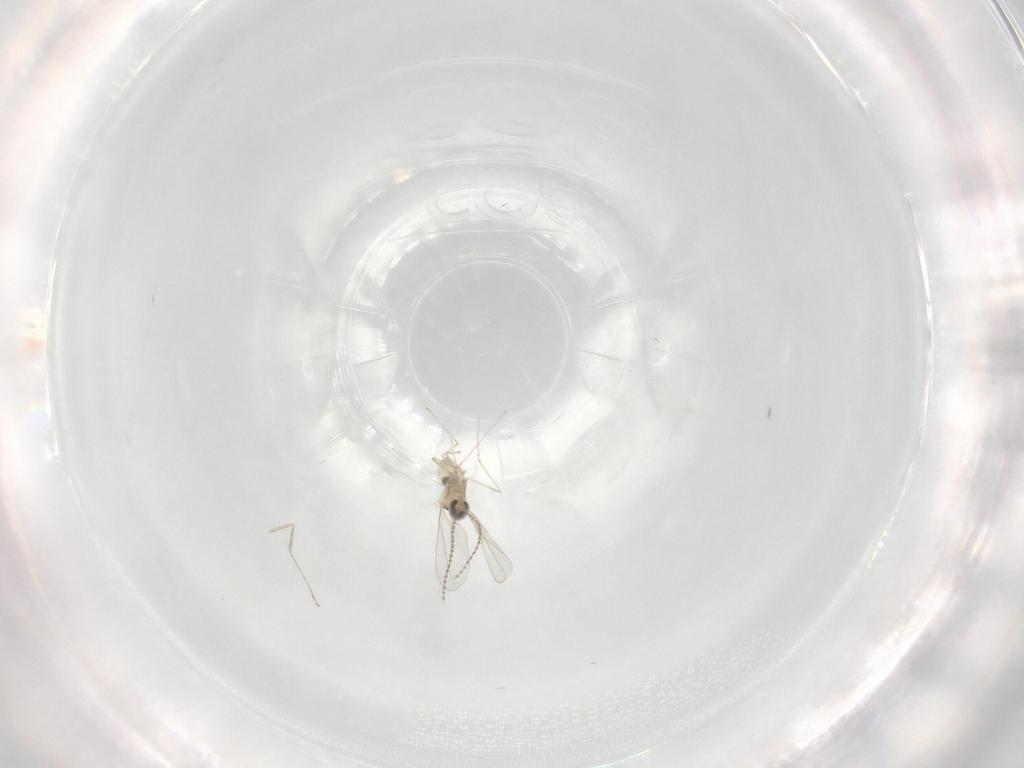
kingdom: Animalia
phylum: Arthropoda
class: Insecta
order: Diptera
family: Cecidomyiidae
